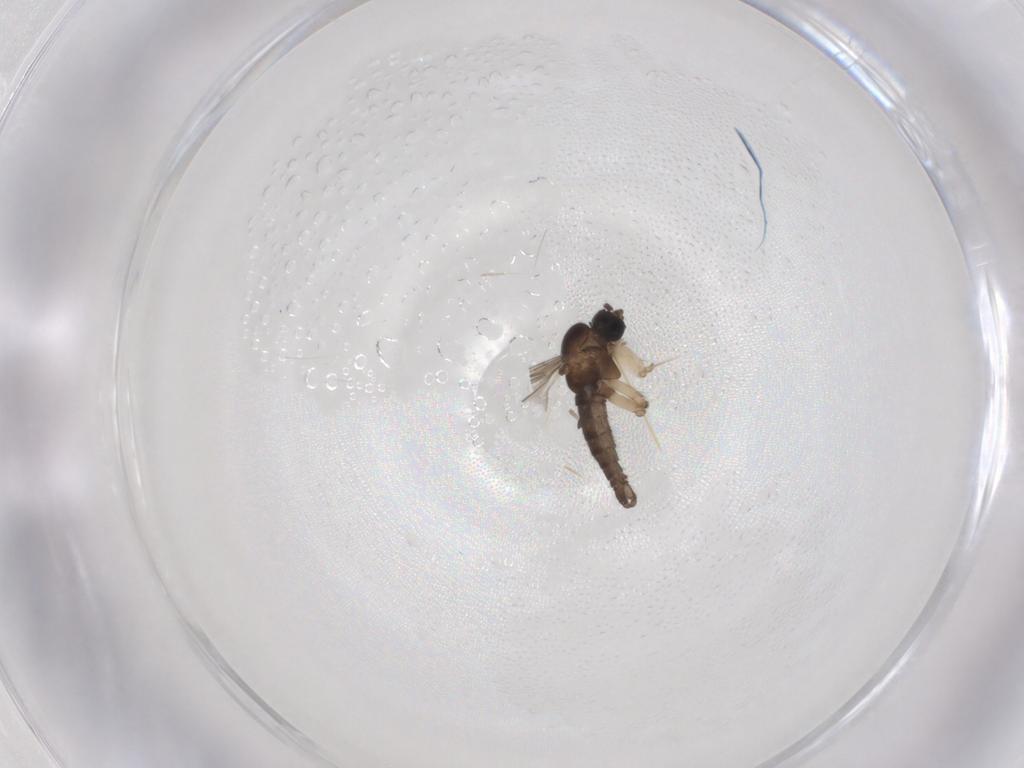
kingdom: Animalia
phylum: Arthropoda
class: Insecta
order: Diptera
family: Sciaridae
